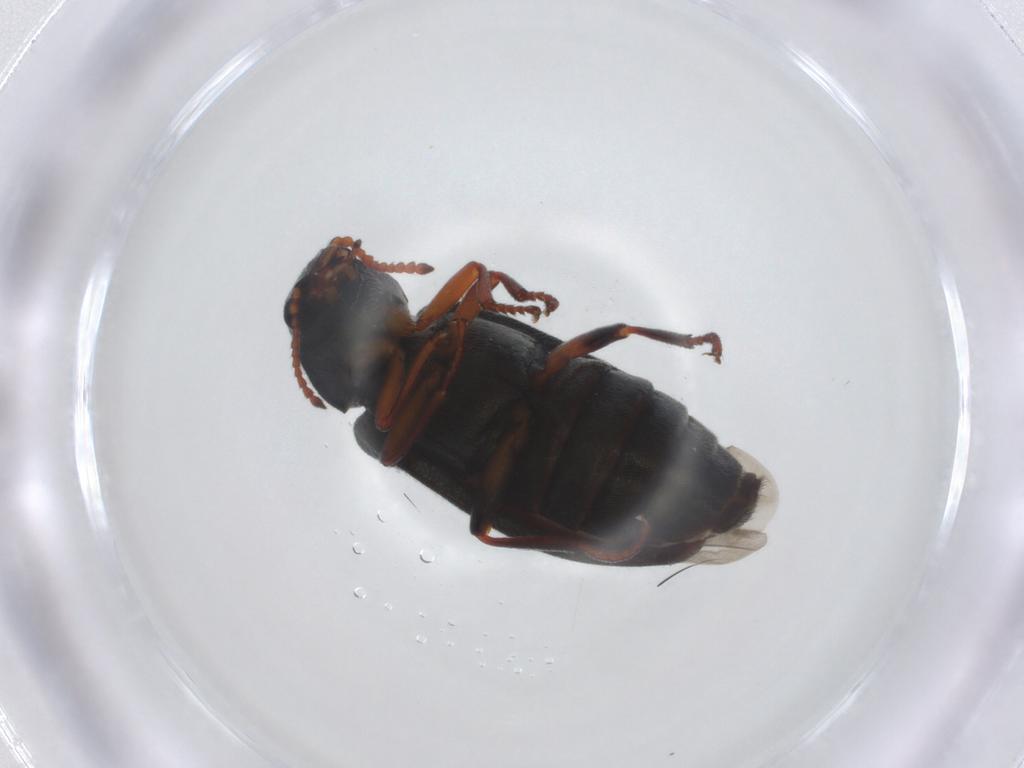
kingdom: Animalia
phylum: Arthropoda
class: Insecta
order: Coleoptera
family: Melyridae
